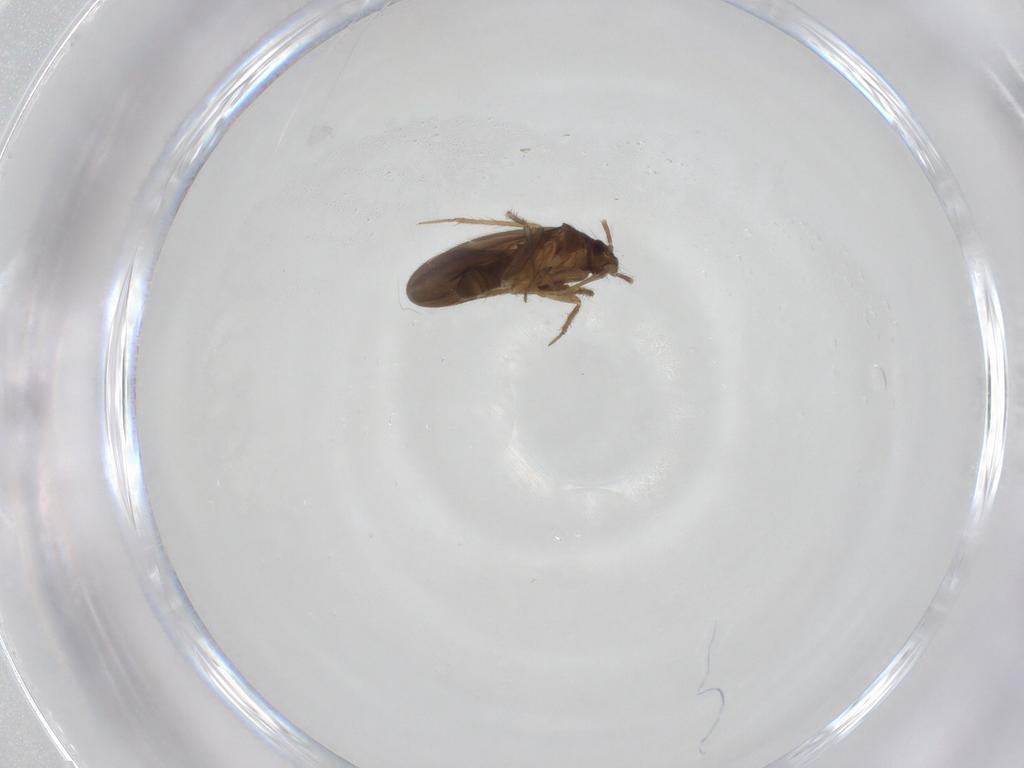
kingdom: Animalia
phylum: Arthropoda
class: Insecta
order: Hemiptera
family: Ceratocombidae
